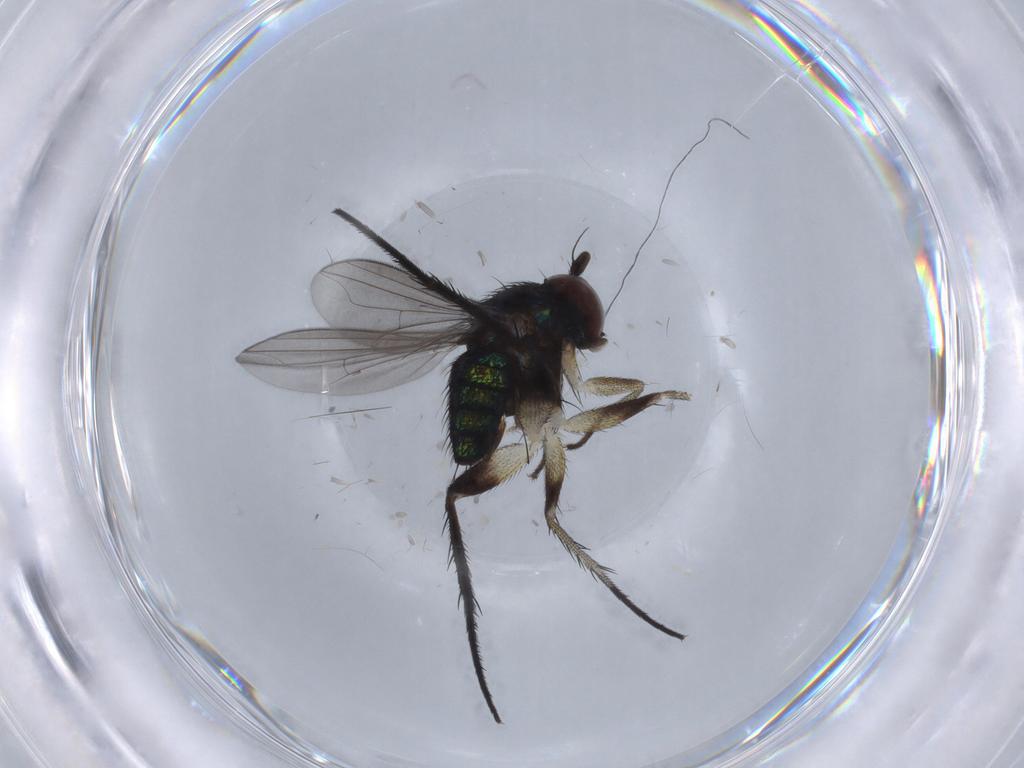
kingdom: Animalia
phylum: Arthropoda
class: Insecta
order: Diptera
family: Dolichopodidae
